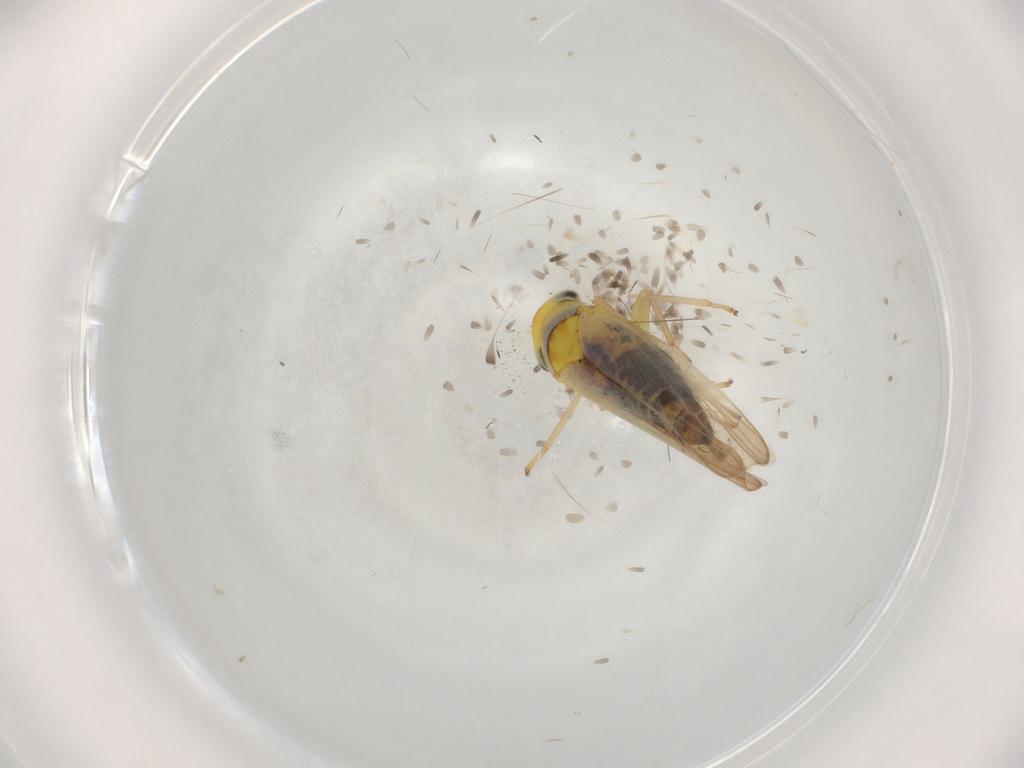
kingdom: Animalia
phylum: Arthropoda
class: Insecta
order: Hemiptera
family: Cicadellidae
